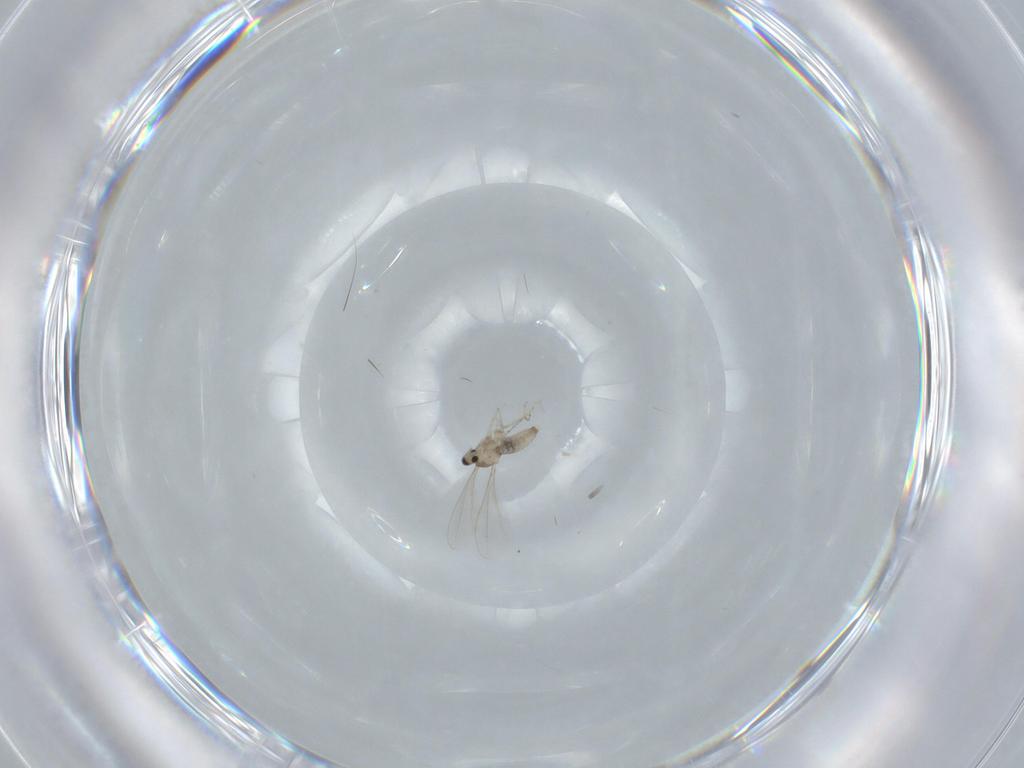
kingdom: Animalia
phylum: Arthropoda
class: Insecta
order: Diptera
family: Cecidomyiidae
